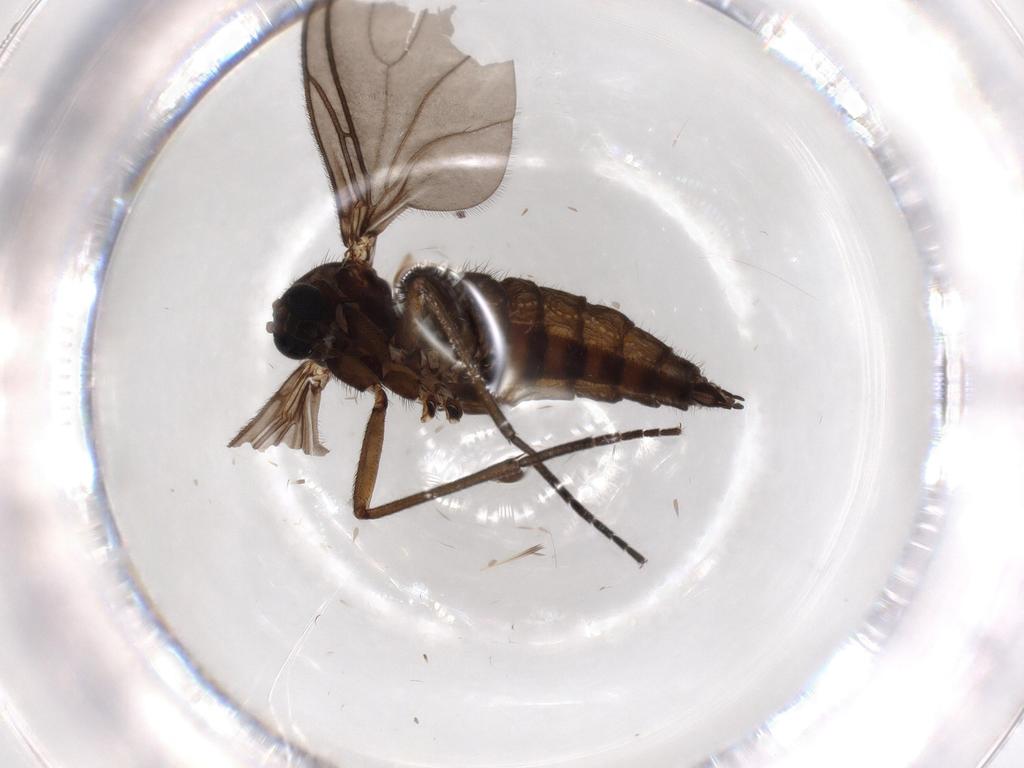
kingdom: Animalia
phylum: Arthropoda
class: Insecta
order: Diptera
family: Sciaridae
